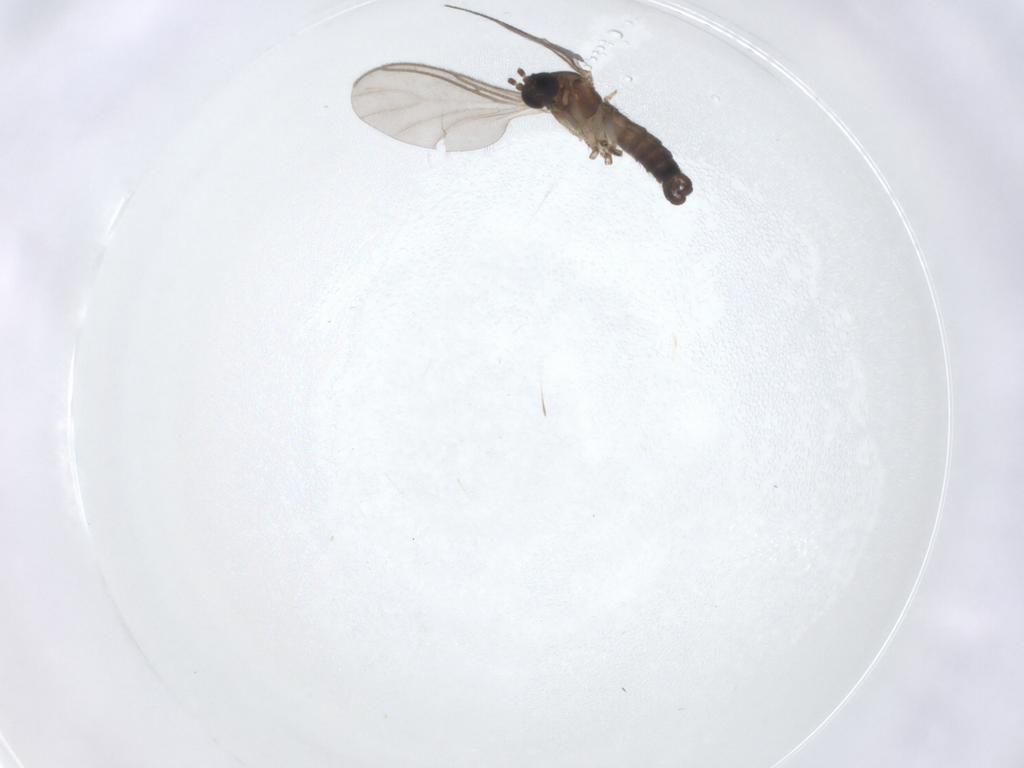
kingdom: Animalia
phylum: Arthropoda
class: Insecta
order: Diptera
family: Sciaridae
